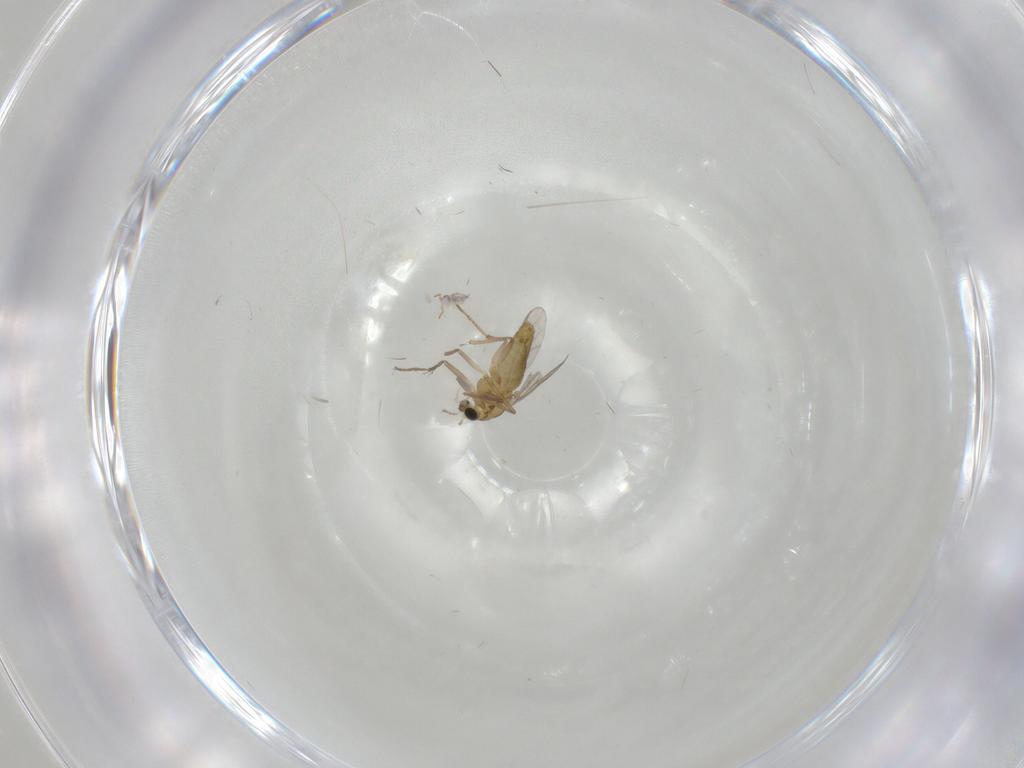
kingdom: Animalia
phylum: Arthropoda
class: Insecta
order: Diptera
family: Chironomidae
